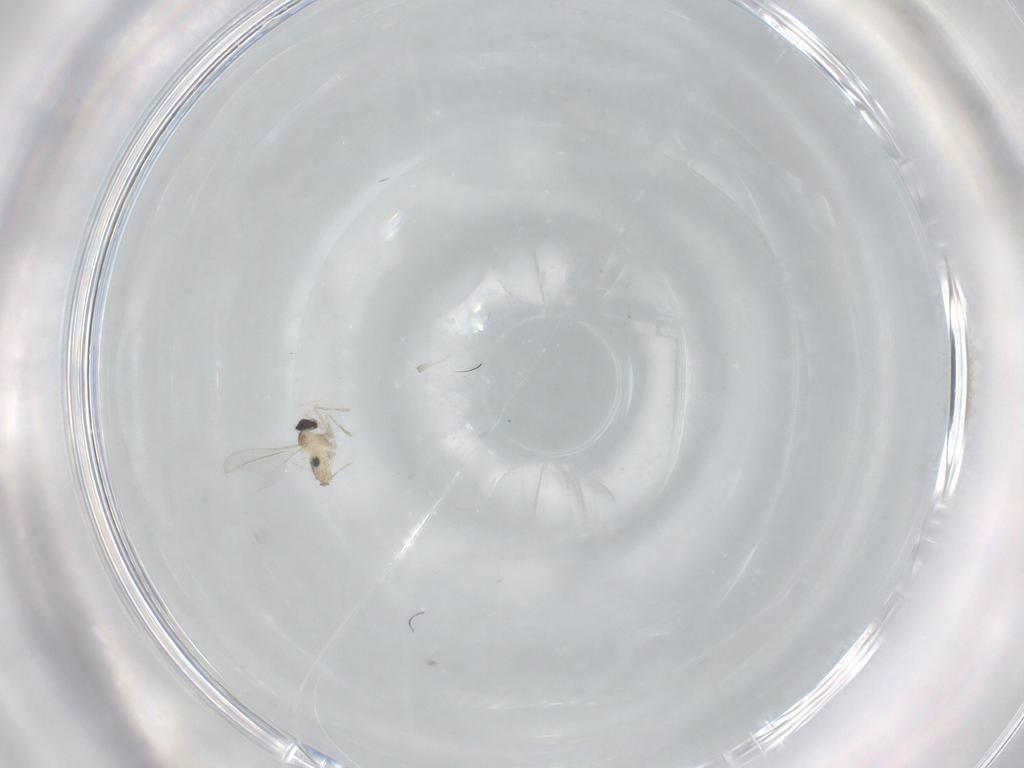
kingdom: Animalia
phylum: Arthropoda
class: Insecta
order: Diptera
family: Cecidomyiidae
